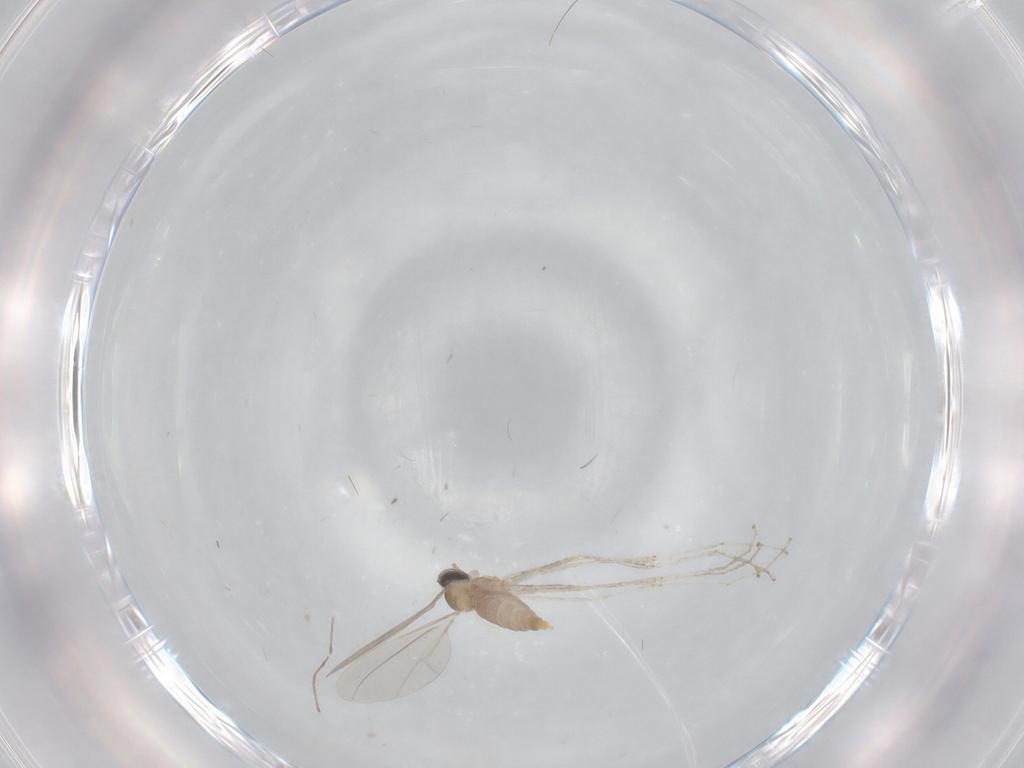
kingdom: Animalia
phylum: Arthropoda
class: Insecta
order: Diptera
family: Cecidomyiidae
